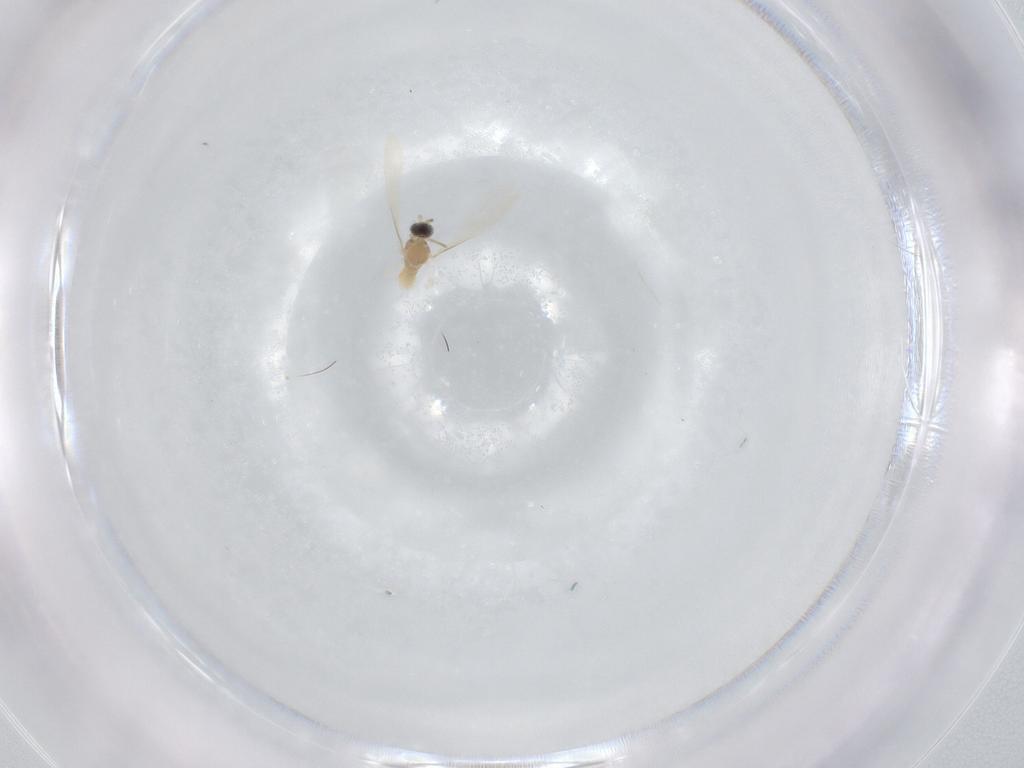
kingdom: Animalia
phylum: Arthropoda
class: Insecta
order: Diptera
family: Cecidomyiidae
